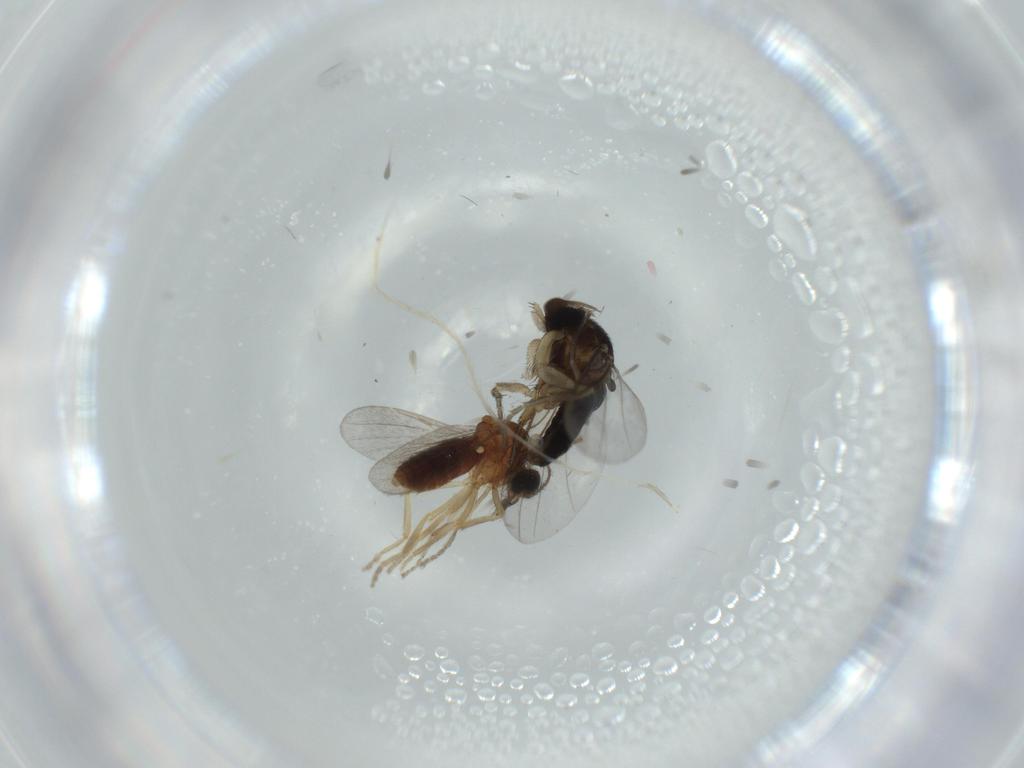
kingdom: Animalia
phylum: Arthropoda
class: Insecta
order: Diptera
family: Ceratopogonidae
